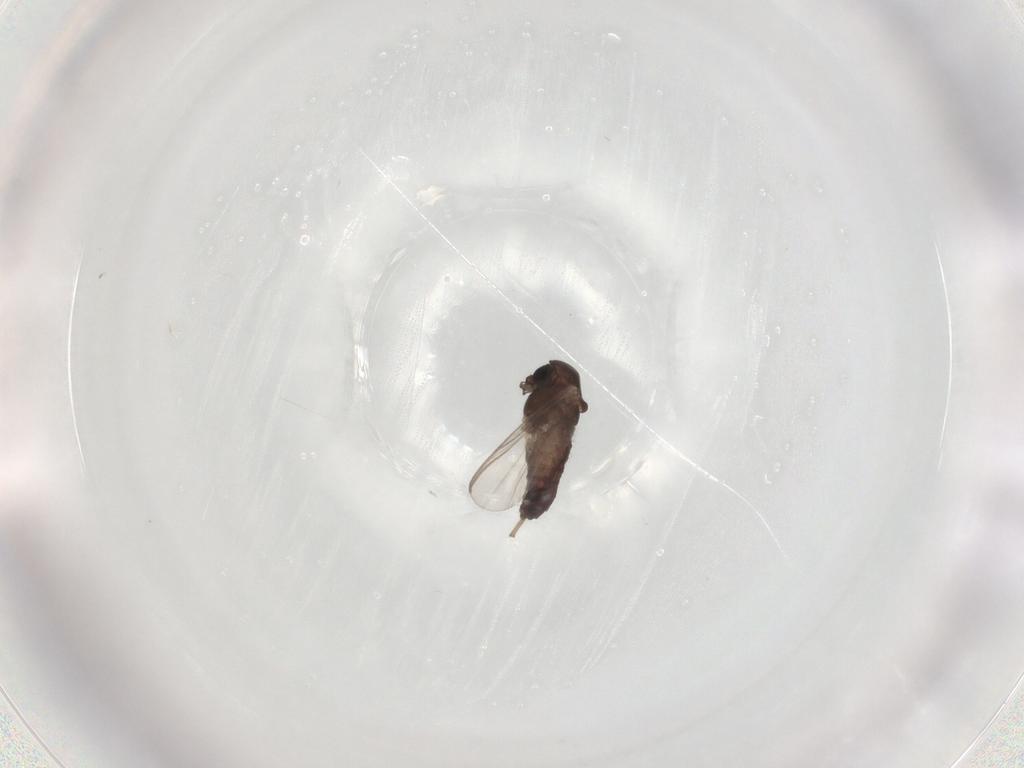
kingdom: Animalia
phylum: Arthropoda
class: Insecta
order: Diptera
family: Chironomidae
